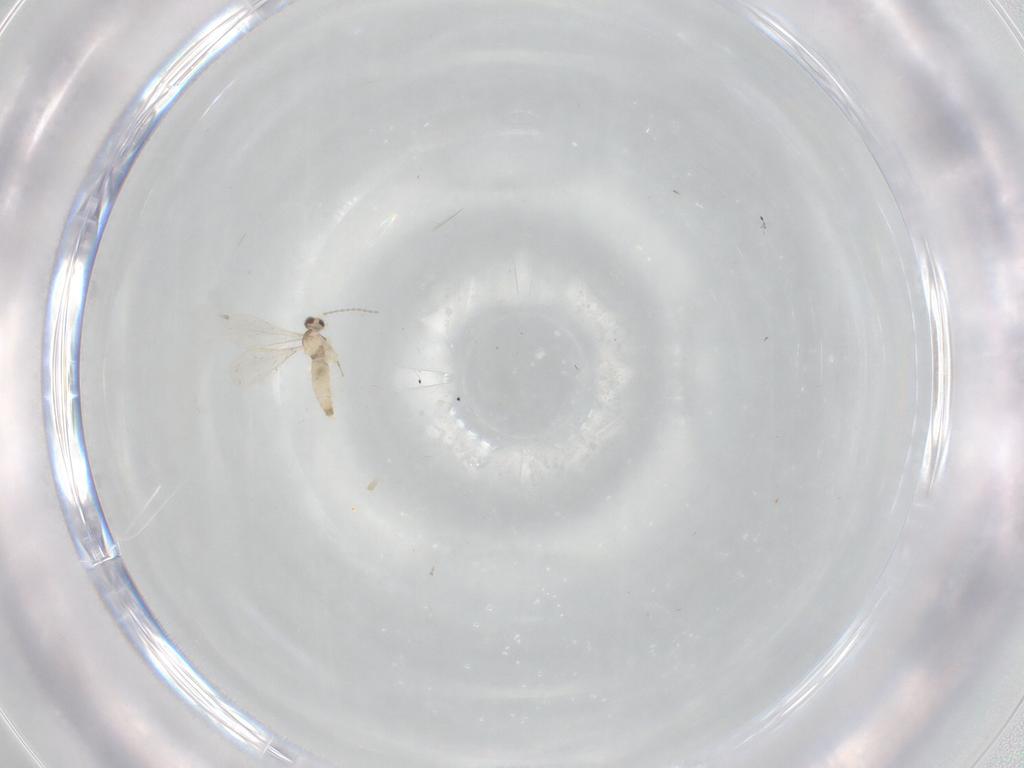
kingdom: Animalia
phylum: Arthropoda
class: Insecta
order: Diptera
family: Cecidomyiidae
